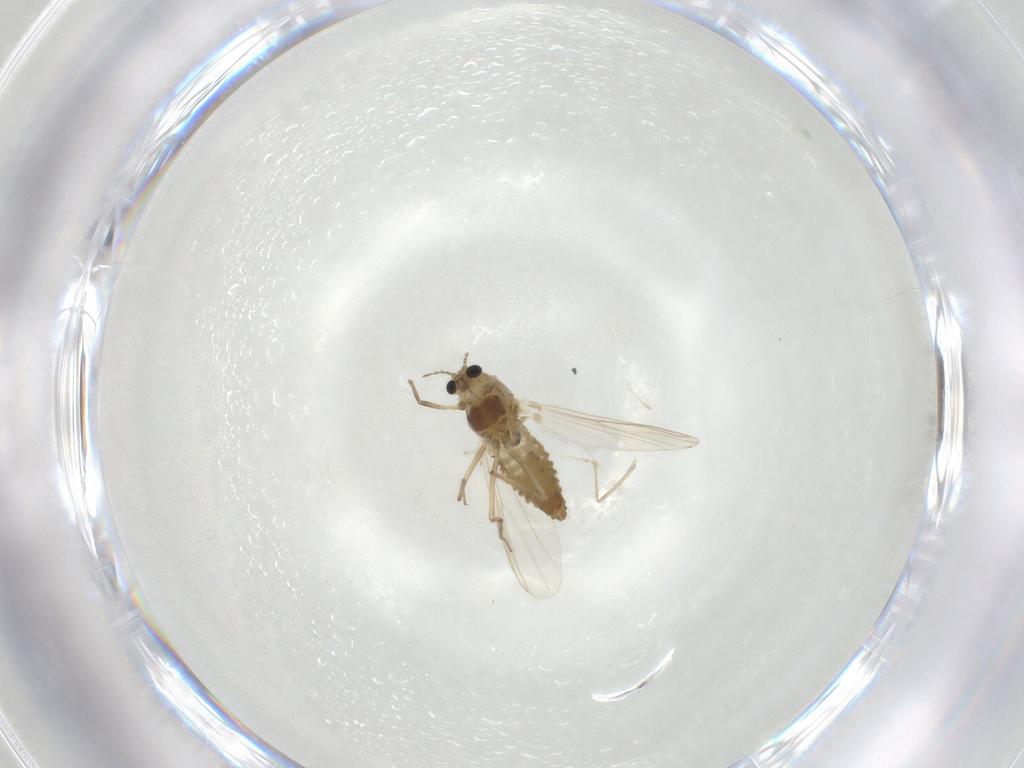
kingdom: Animalia
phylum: Arthropoda
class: Insecta
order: Diptera
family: Chironomidae
